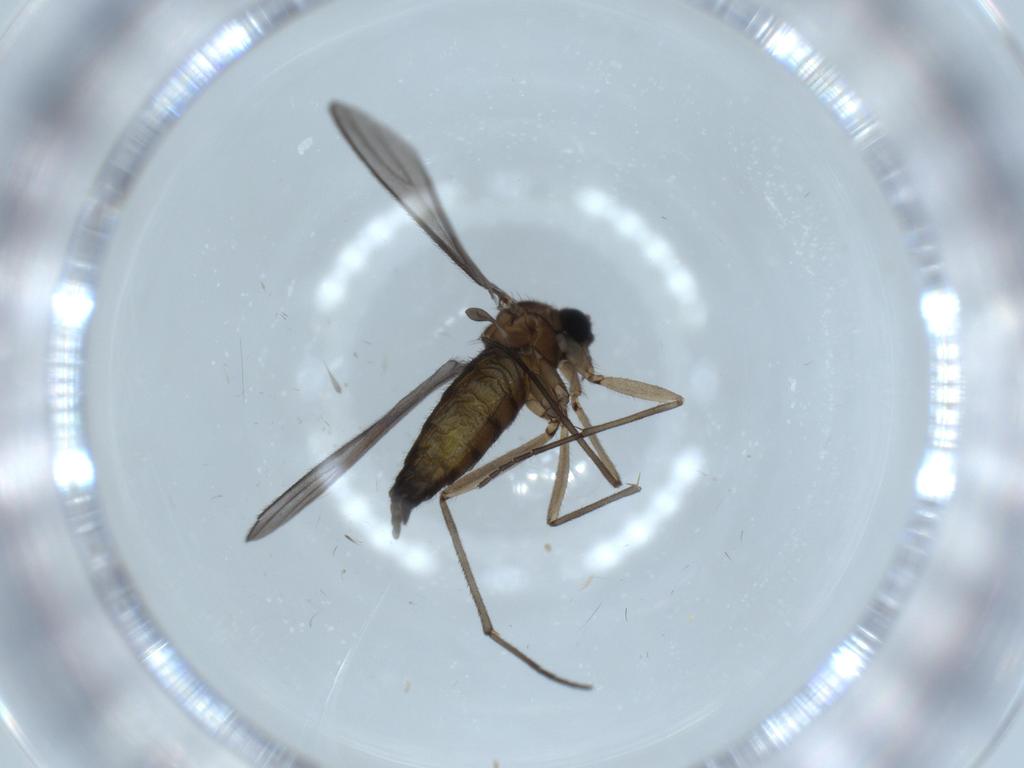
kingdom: Animalia
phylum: Arthropoda
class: Insecta
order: Diptera
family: Sciaridae
